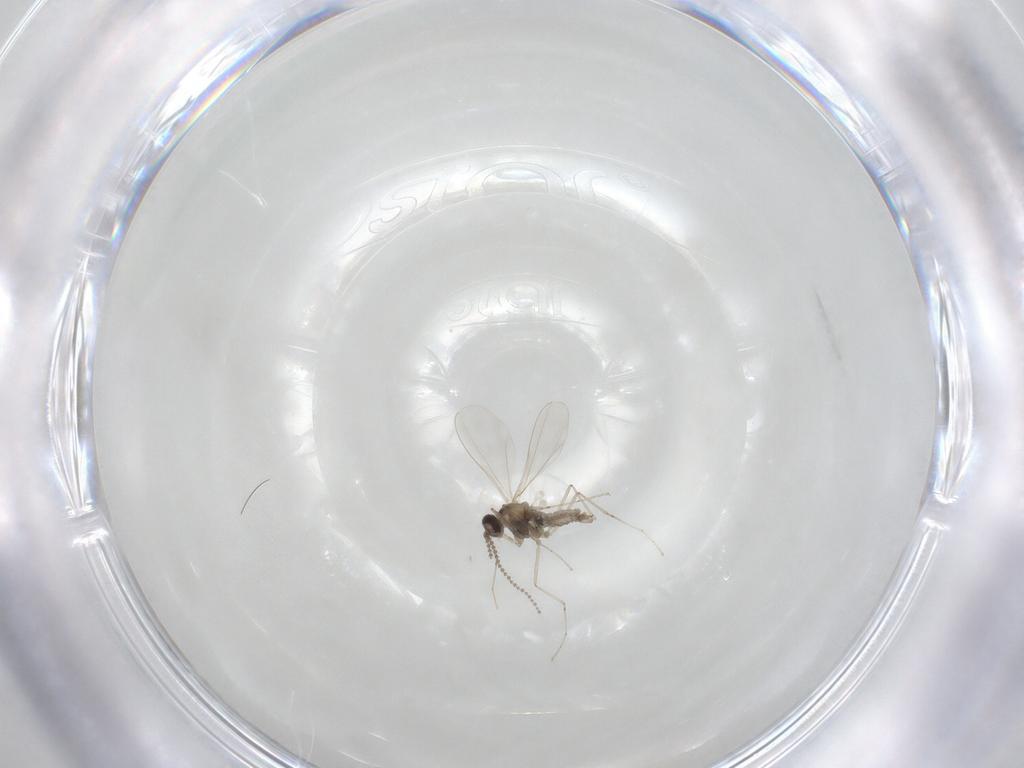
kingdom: Animalia
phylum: Arthropoda
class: Insecta
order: Diptera
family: Cecidomyiidae
